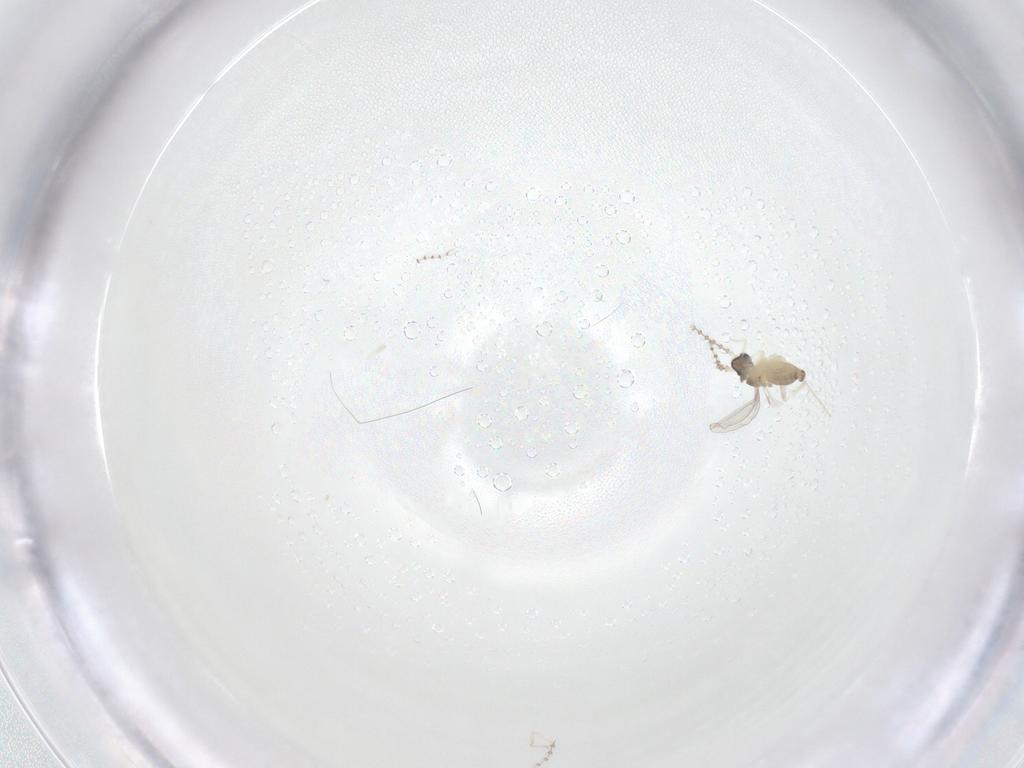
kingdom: Animalia
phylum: Arthropoda
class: Insecta
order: Diptera
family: Cecidomyiidae
